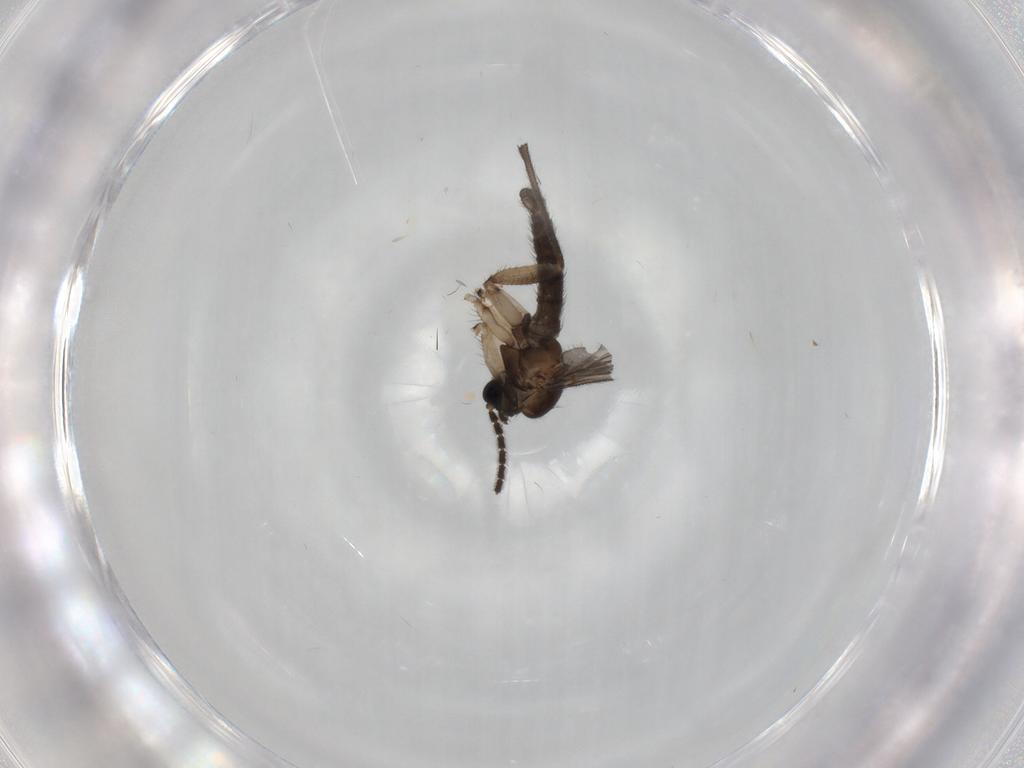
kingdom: Animalia
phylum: Arthropoda
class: Insecta
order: Diptera
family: Sciaridae
